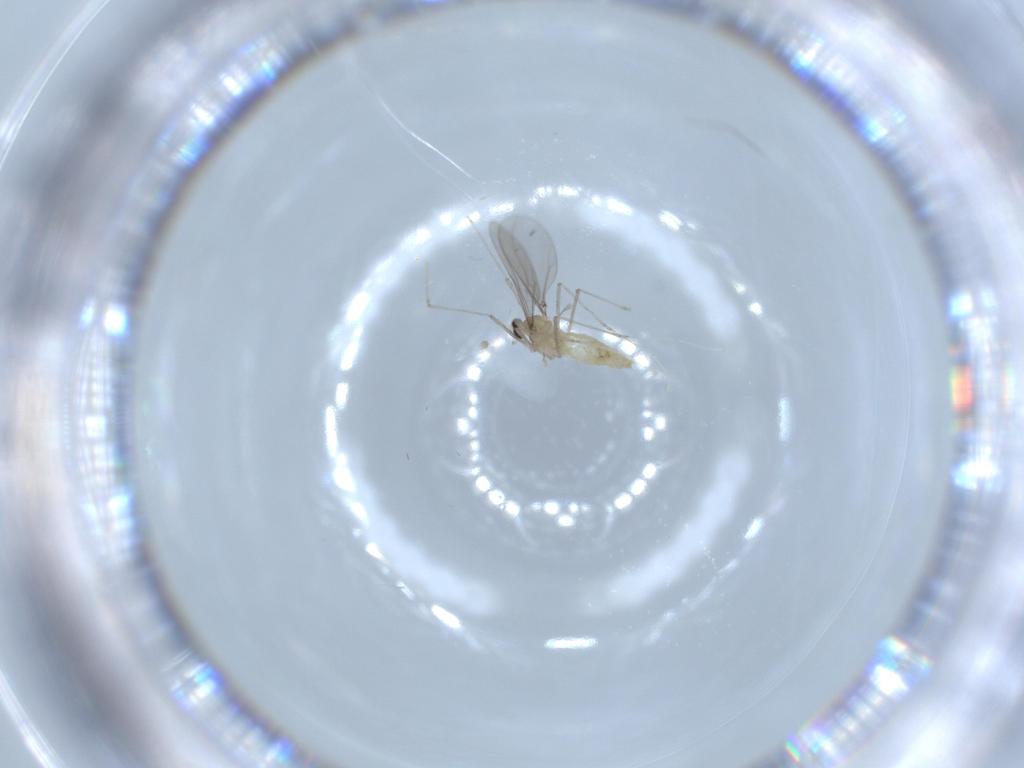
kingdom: Animalia
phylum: Arthropoda
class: Insecta
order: Diptera
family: Cecidomyiidae
